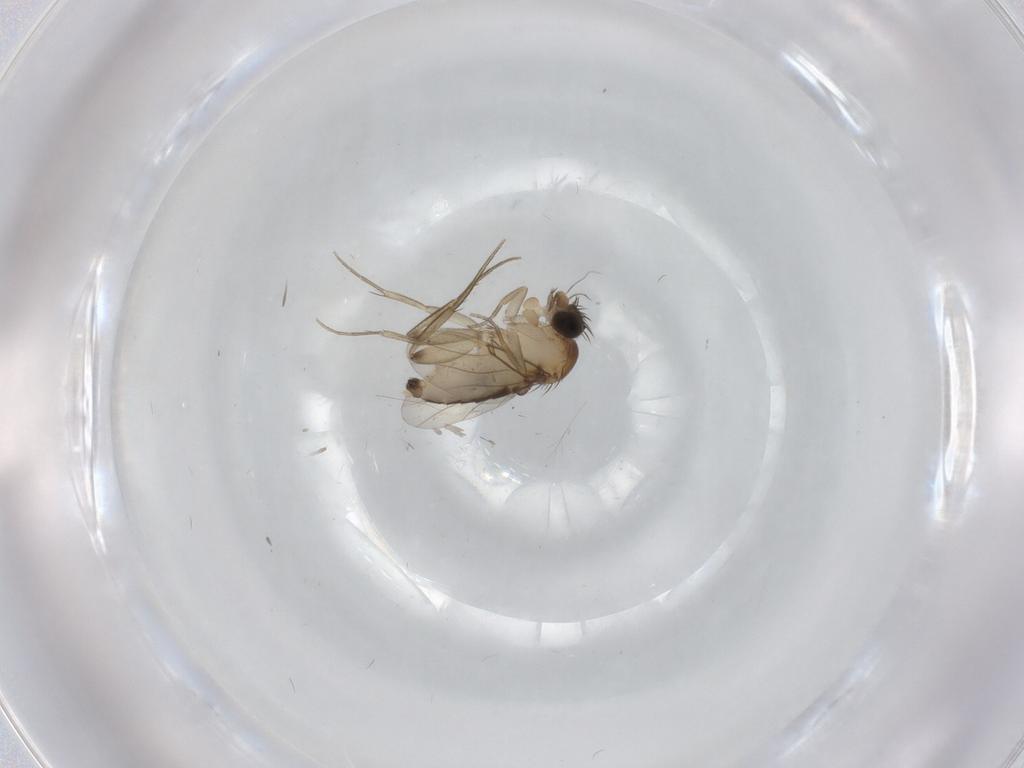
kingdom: Animalia
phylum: Arthropoda
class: Insecta
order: Diptera
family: Phoridae
